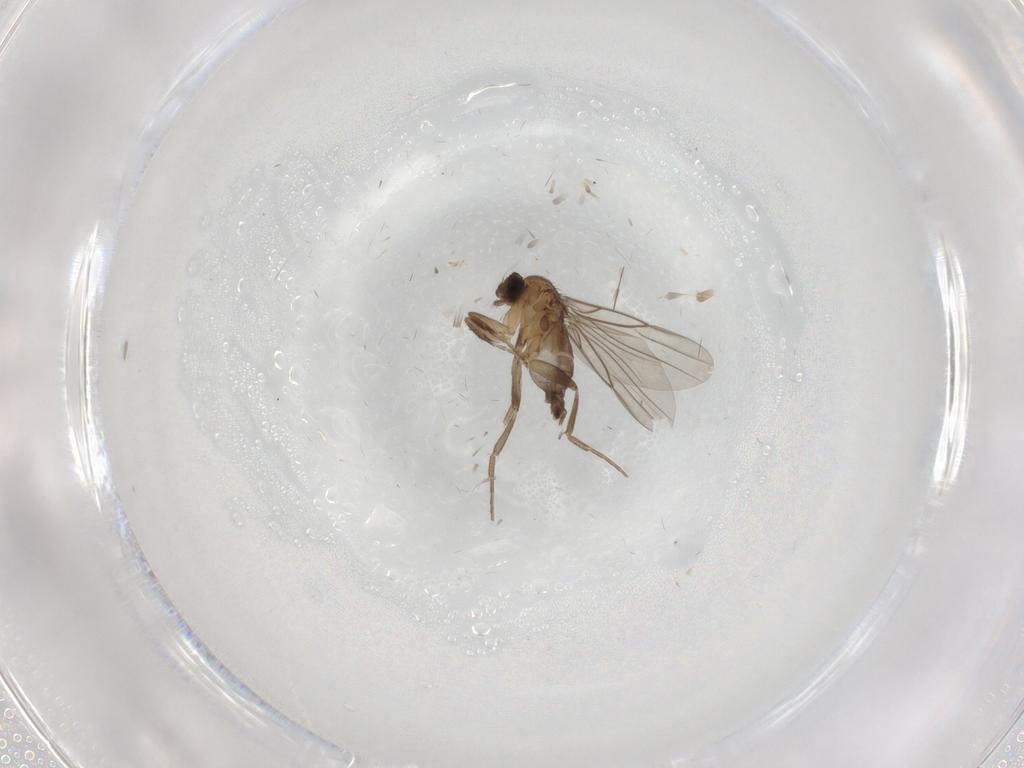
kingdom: Animalia
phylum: Arthropoda
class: Insecta
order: Diptera
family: Phoridae
